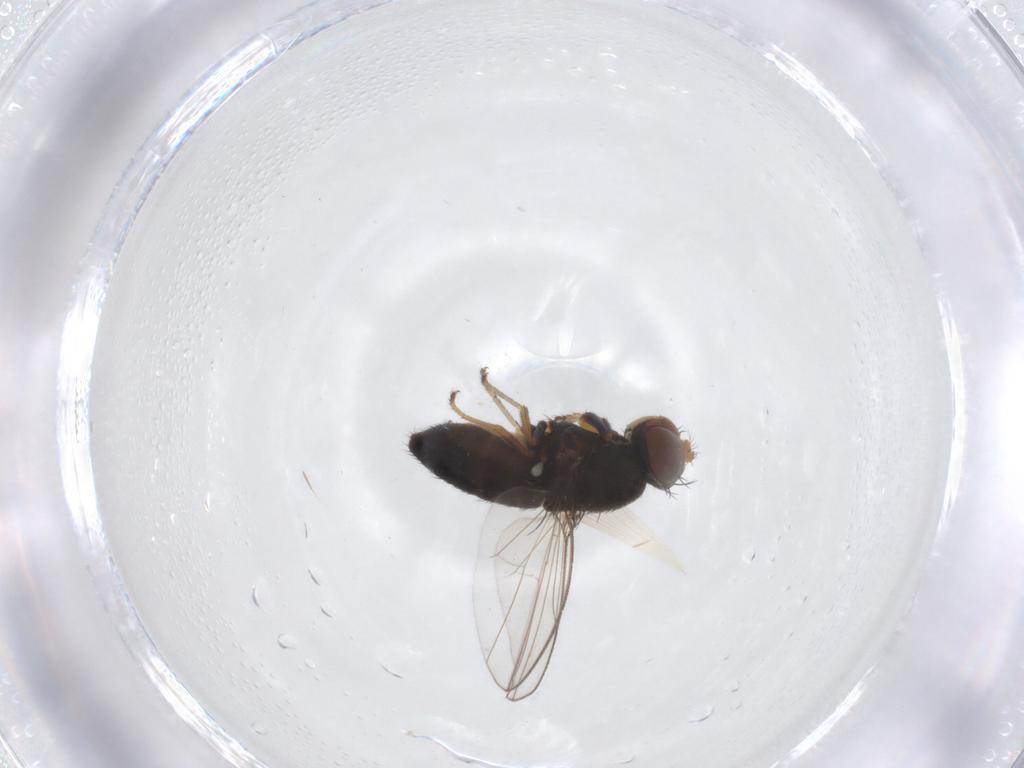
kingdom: Animalia
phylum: Arthropoda
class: Insecta
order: Diptera
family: Ephydridae
